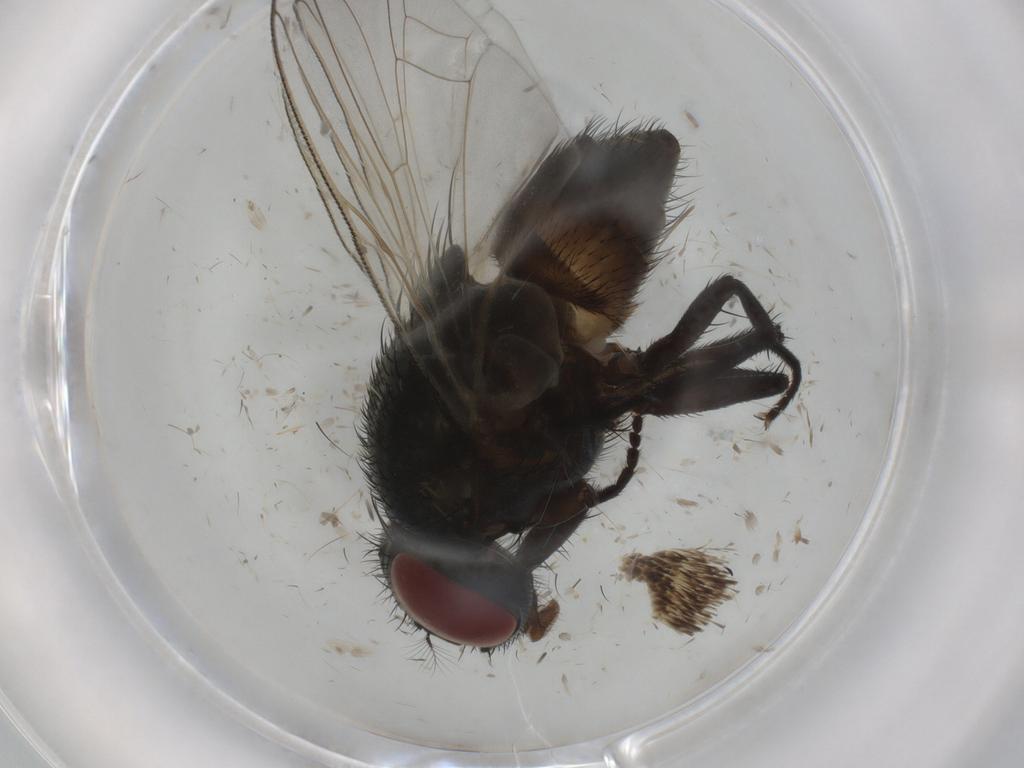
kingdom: Animalia
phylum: Arthropoda
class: Insecta
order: Diptera
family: Muscidae
